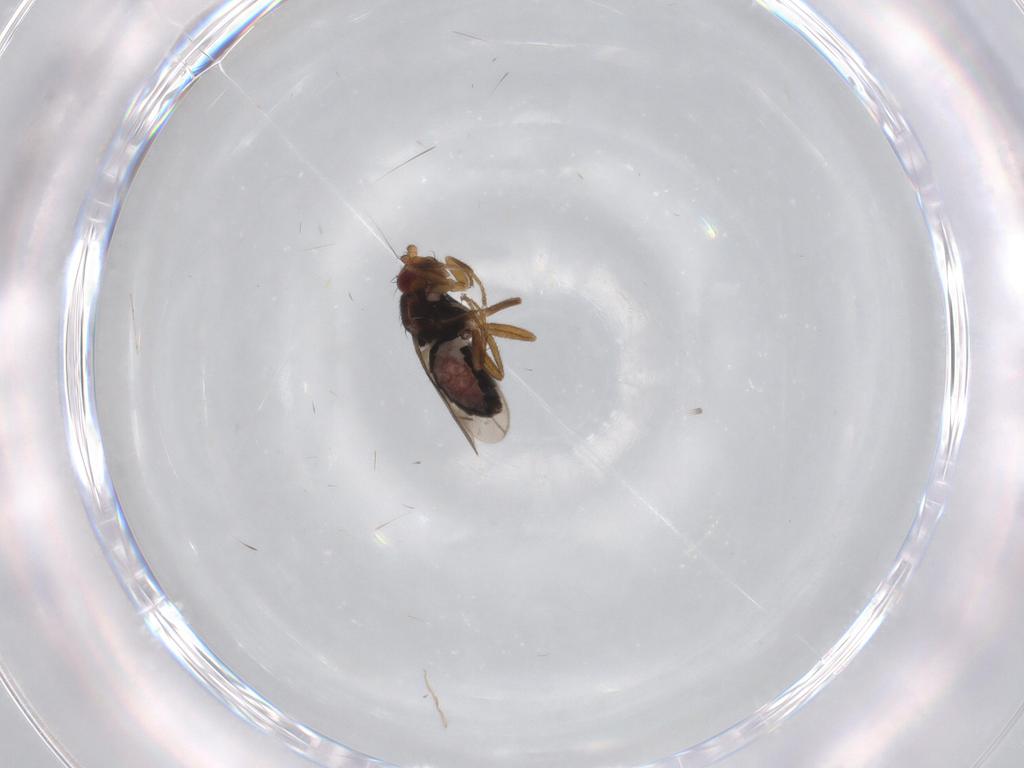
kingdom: Animalia
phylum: Arthropoda
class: Insecta
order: Diptera
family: Sphaeroceridae
